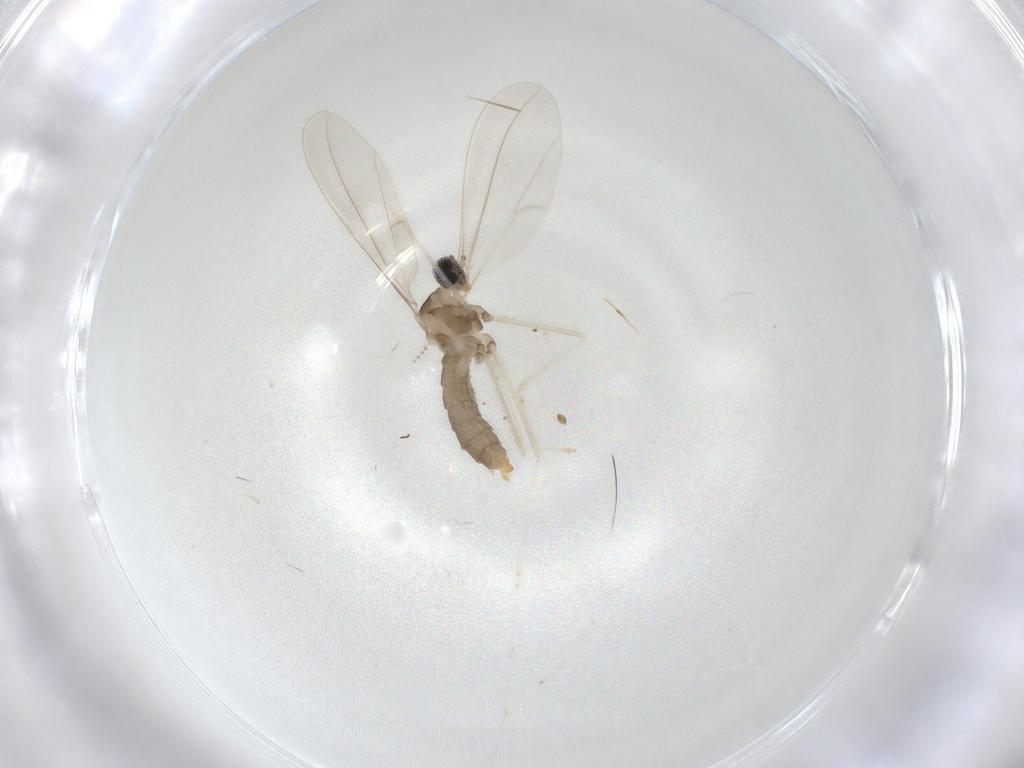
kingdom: Animalia
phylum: Arthropoda
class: Insecta
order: Diptera
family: Cecidomyiidae
